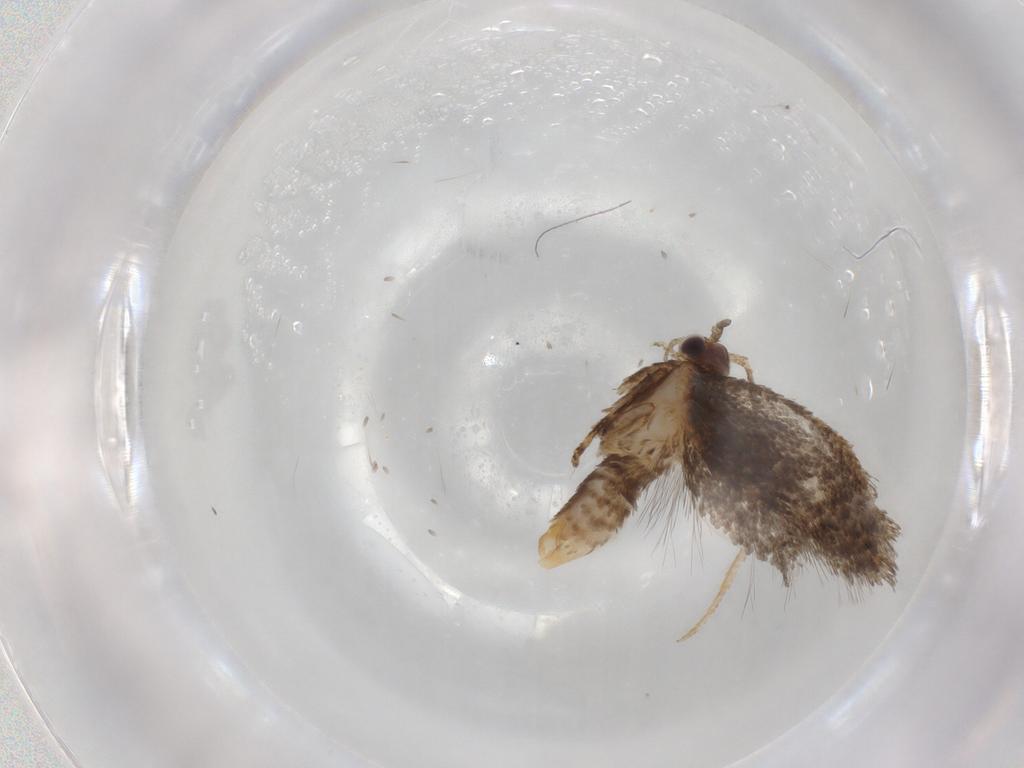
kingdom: Animalia
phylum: Arthropoda
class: Insecta
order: Lepidoptera
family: Tineidae
